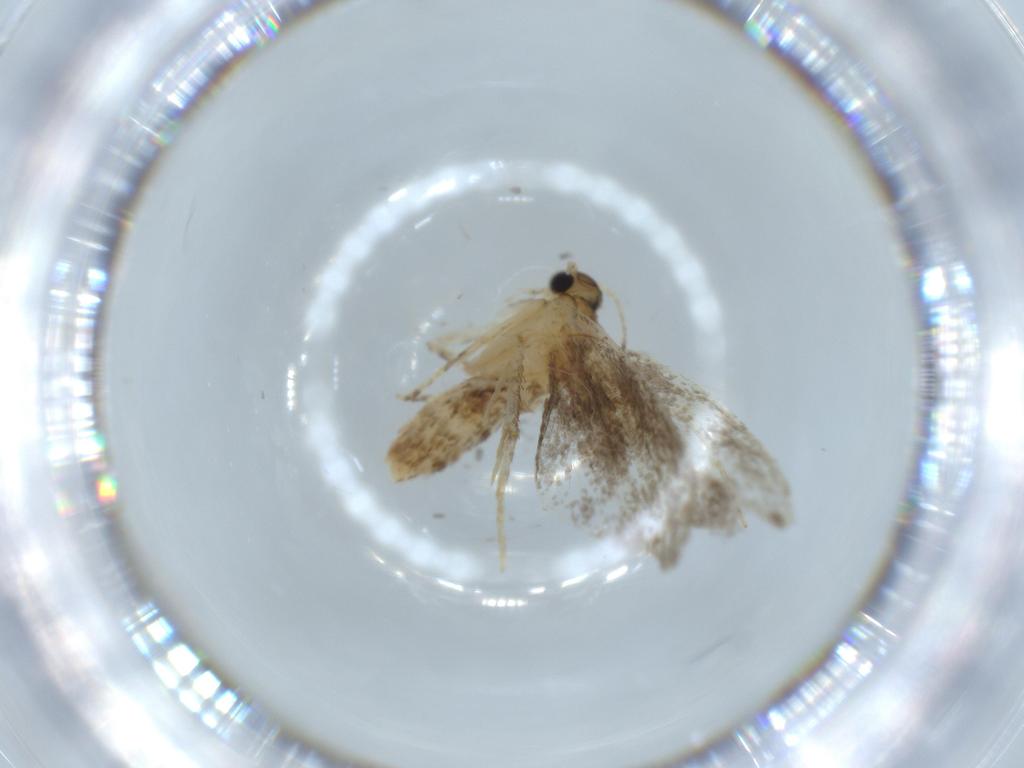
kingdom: Animalia
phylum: Arthropoda
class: Insecta
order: Lepidoptera
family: Tineidae
